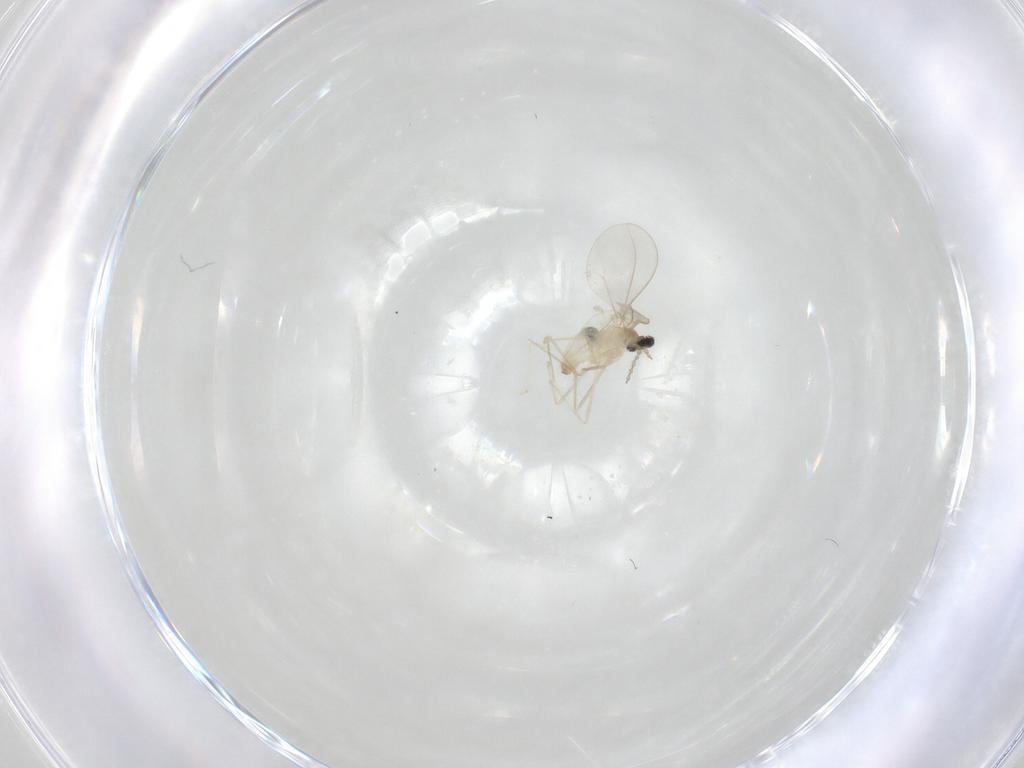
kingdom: Animalia
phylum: Arthropoda
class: Insecta
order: Diptera
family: Cecidomyiidae
